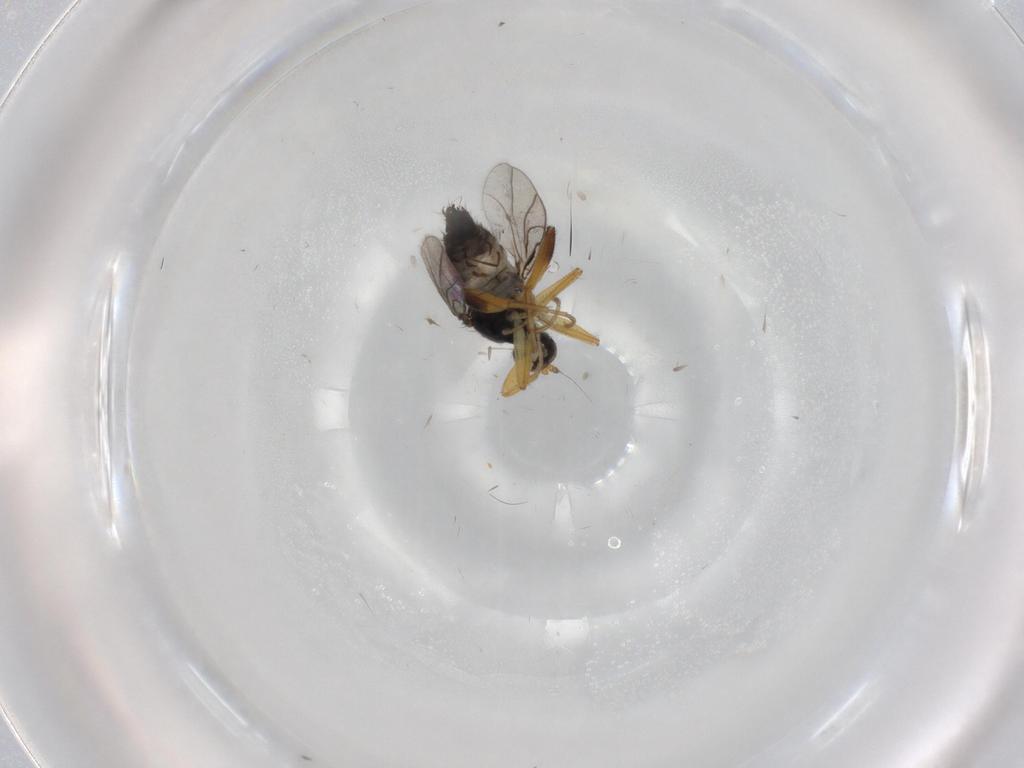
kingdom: Animalia
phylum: Arthropoda
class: Insecta
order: Diptera
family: Hybotidae
